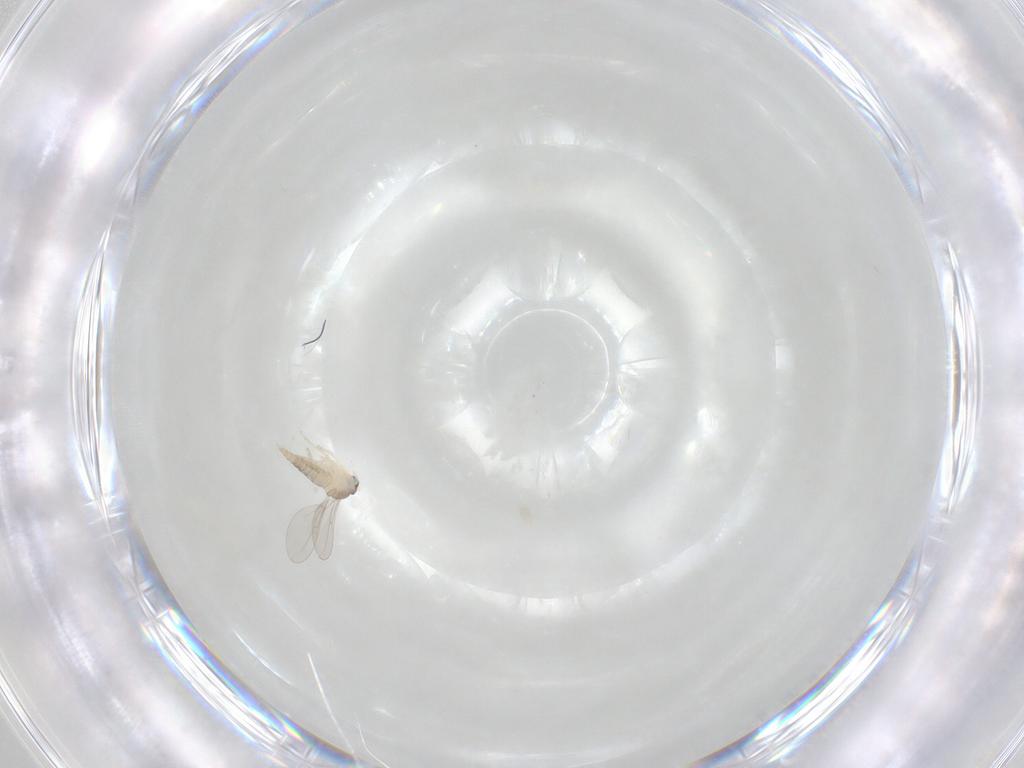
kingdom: Animalia
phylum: Arthropoda
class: Insecta
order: Diptera
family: Cecidomyiidae
